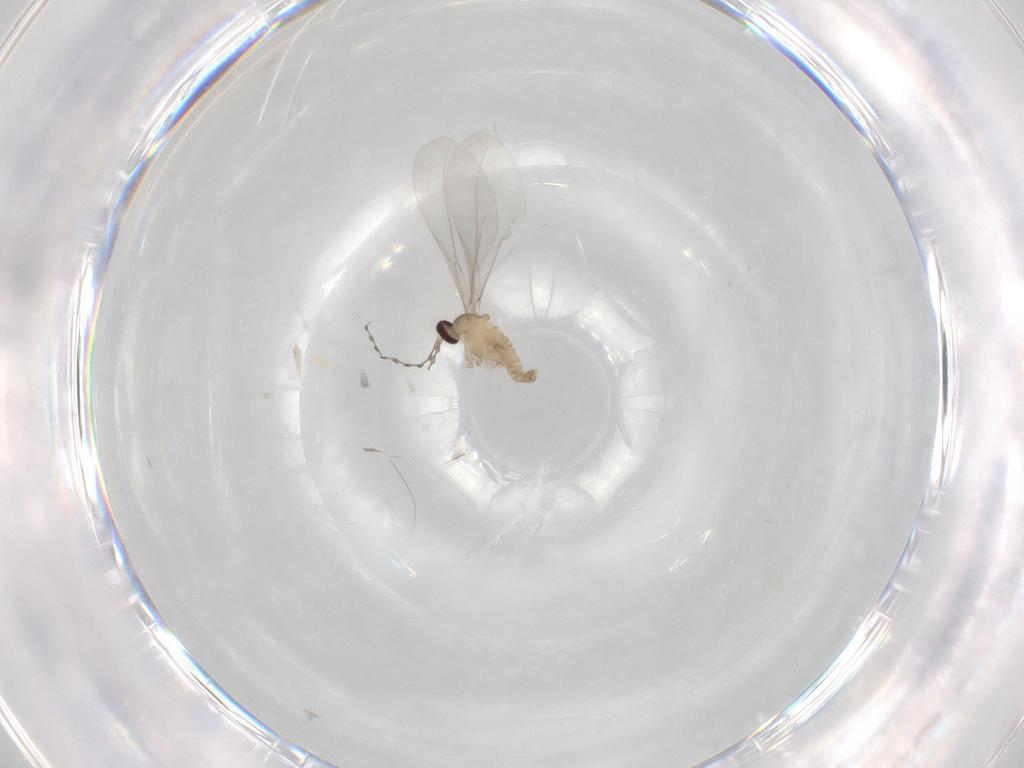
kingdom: Animalia
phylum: Arthropoda
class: Insecta
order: Diptera
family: Cecidomyiidae
